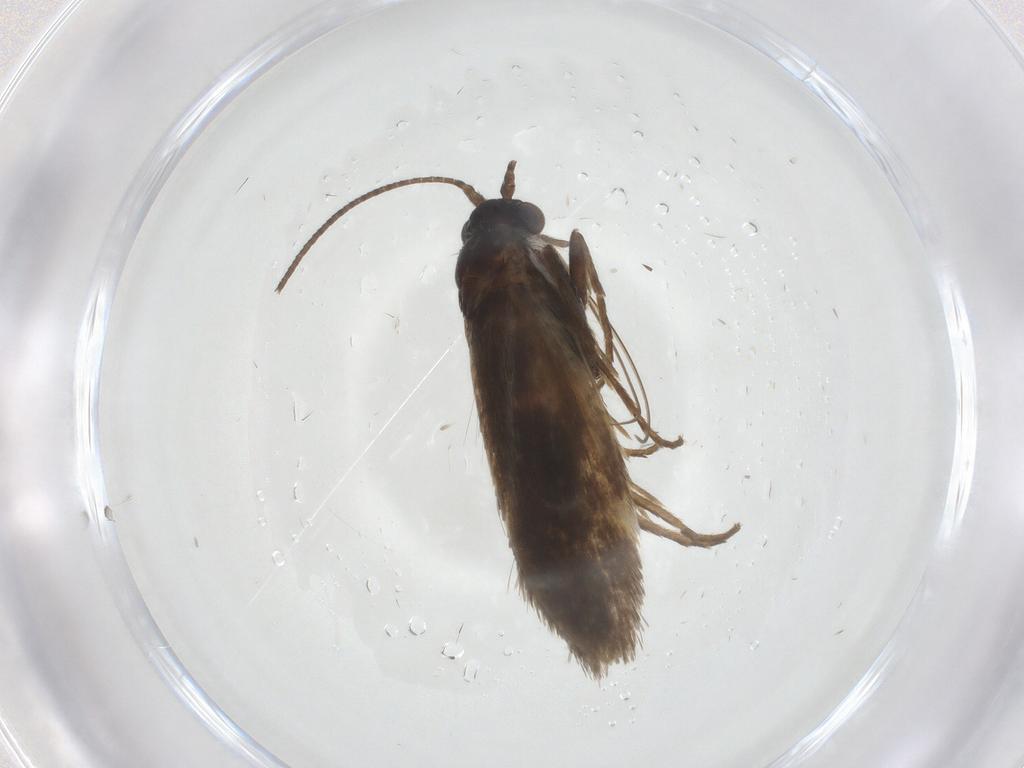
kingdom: Animalia
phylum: Arthropoda
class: Insecta
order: Lepidoptera
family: Adelidae
